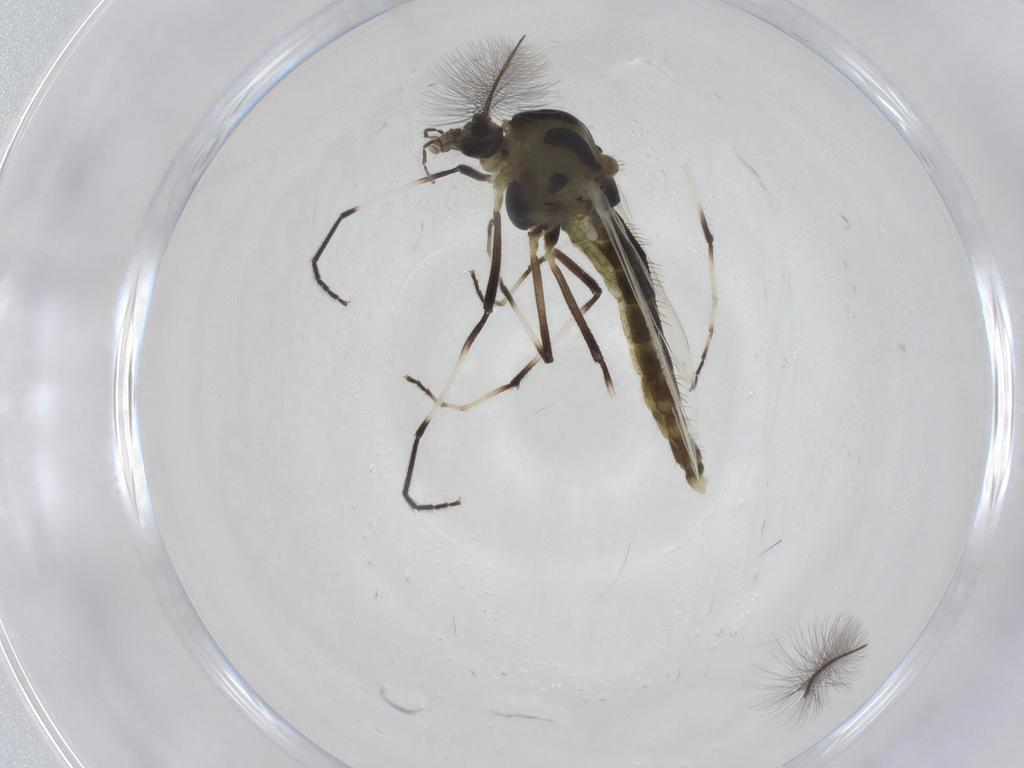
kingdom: Animalia
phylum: Arthropoda
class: Insecta
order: Diptera
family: Chironomidae
